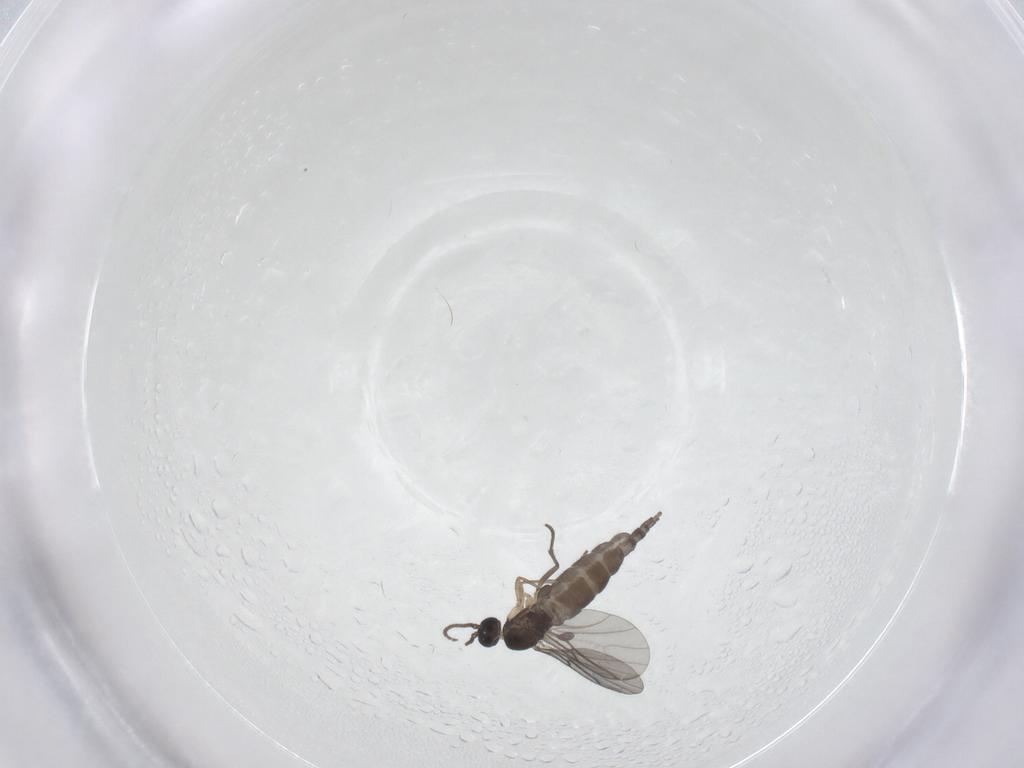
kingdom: Animalia
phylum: Arthropoda
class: Insecta
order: Diptera
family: Sciaridae
